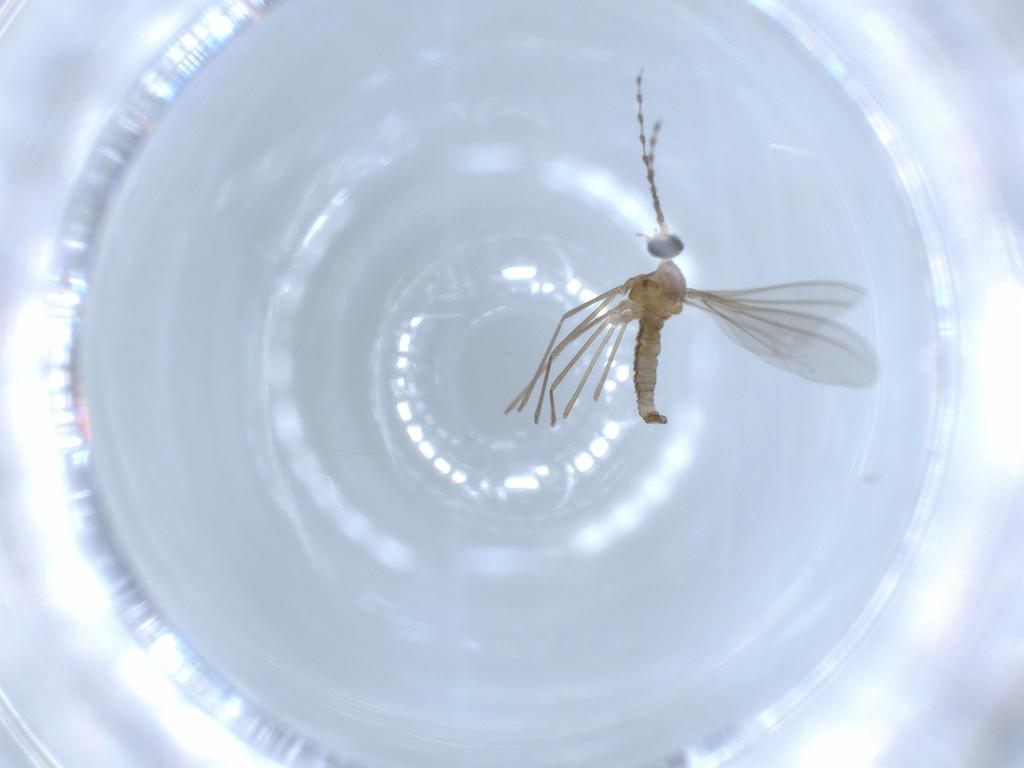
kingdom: Animalia
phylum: Arthropoda
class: Insecta
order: Diptera
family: Cecidomyiidae
